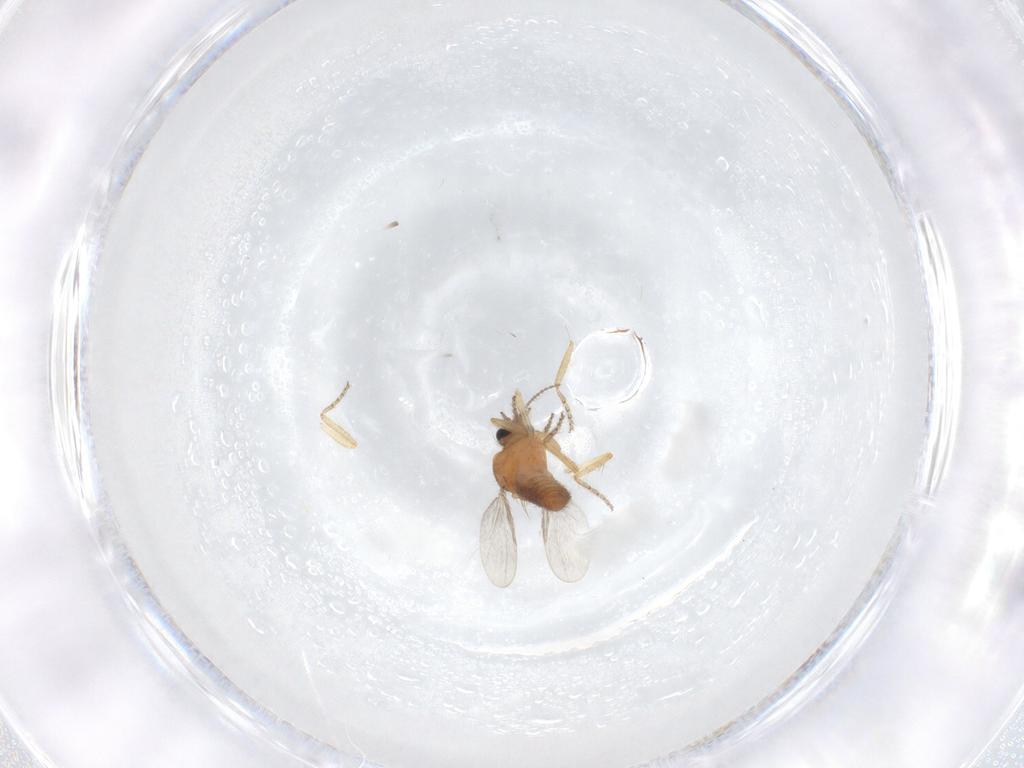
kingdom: Animalia
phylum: Arthropoda
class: Insecta
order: Diptera
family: Ceratopogonidae
